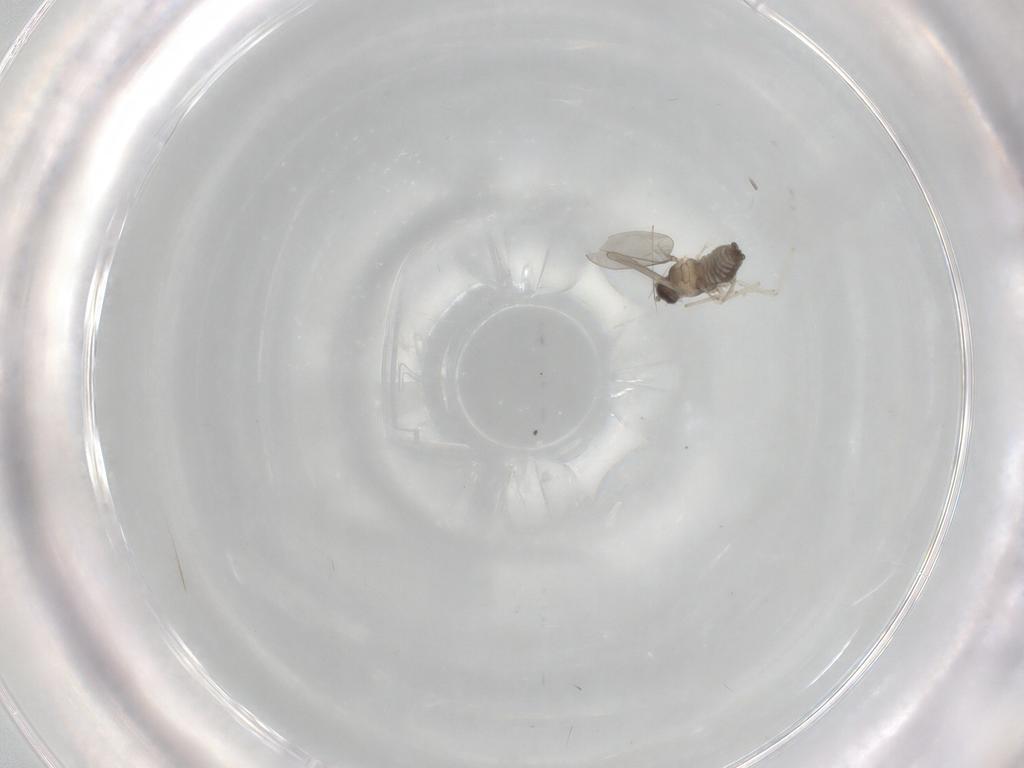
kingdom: Animalia
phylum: Arthropoda
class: Insecta
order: Diptera
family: Cecidomyiidae
